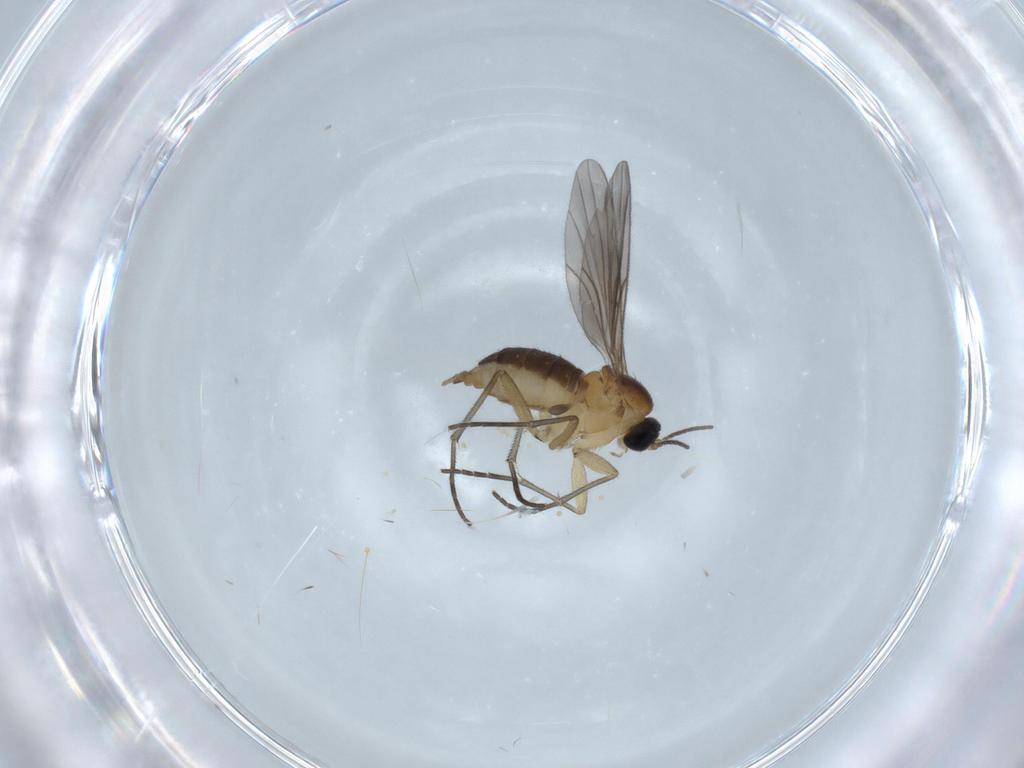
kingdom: Animalia
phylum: Arthropoda
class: Insecta
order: Diptera
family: Sciaridae
